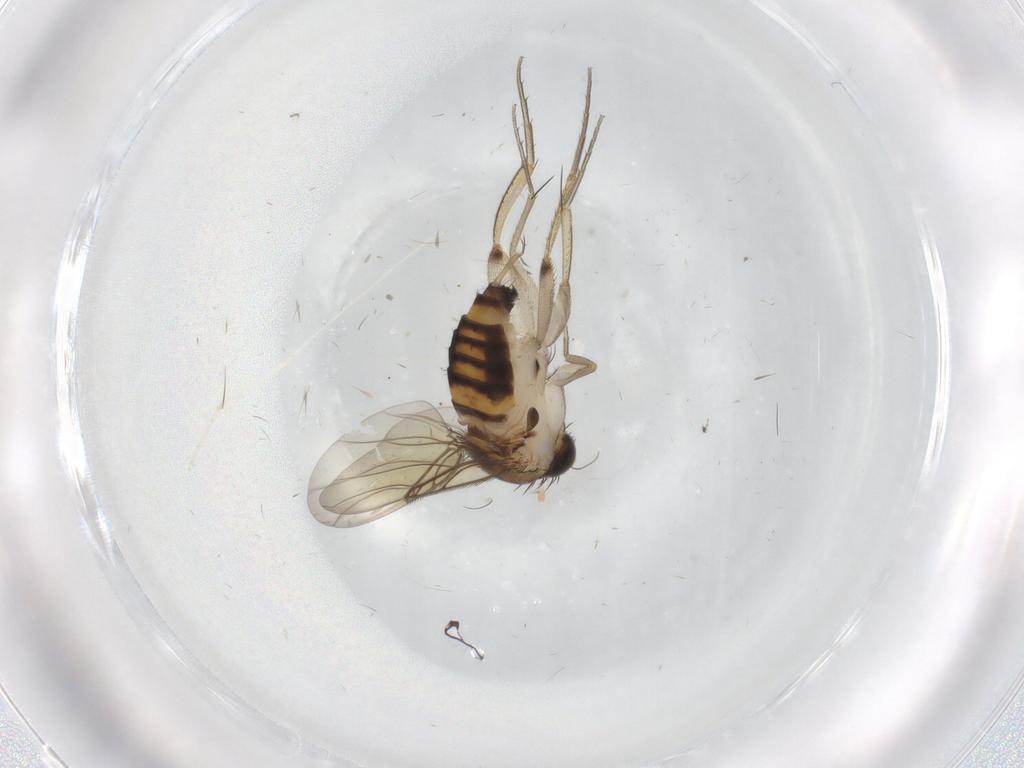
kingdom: Animalia
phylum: Arthropoda
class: Insecta
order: Diptera
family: Phoridae
